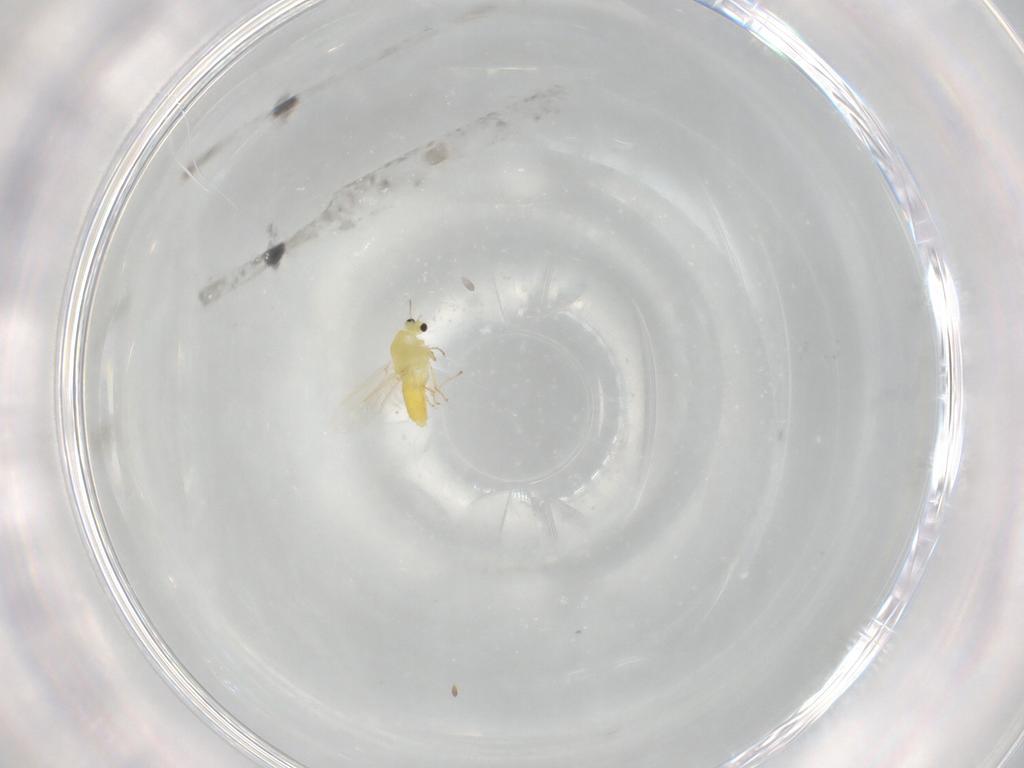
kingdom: Animalia
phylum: Arthropoda
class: Insecta
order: Diptera
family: Chironomidae
